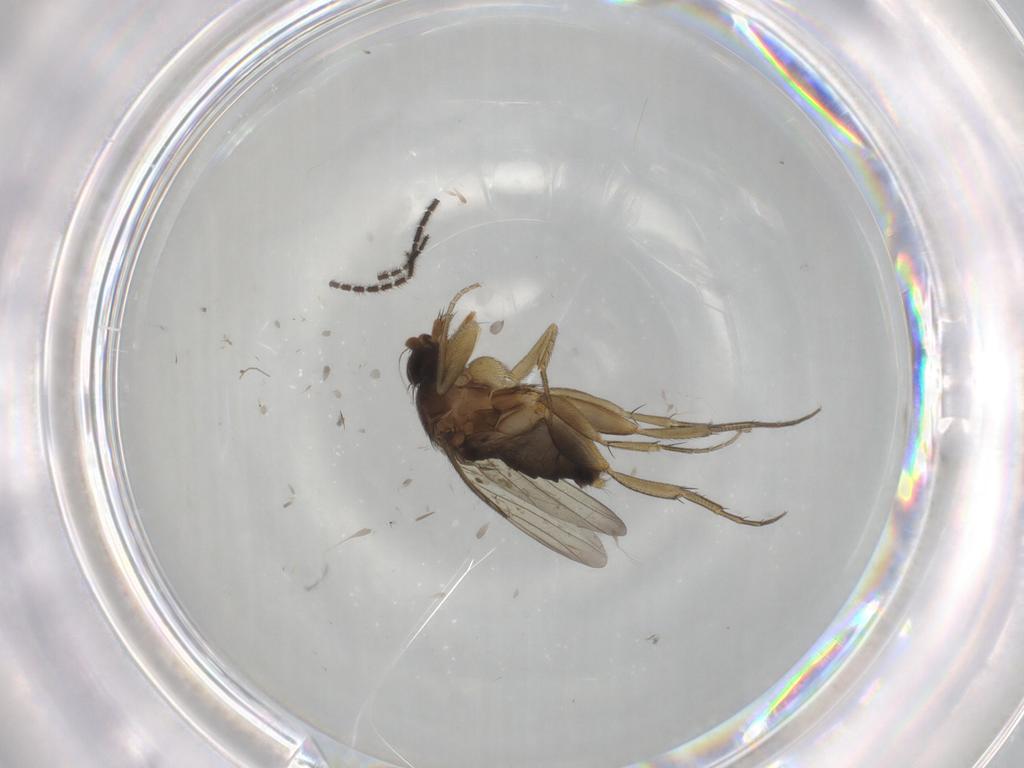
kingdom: Animalia
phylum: Arthropoda
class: Insecta
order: Diptera
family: Phoridae
